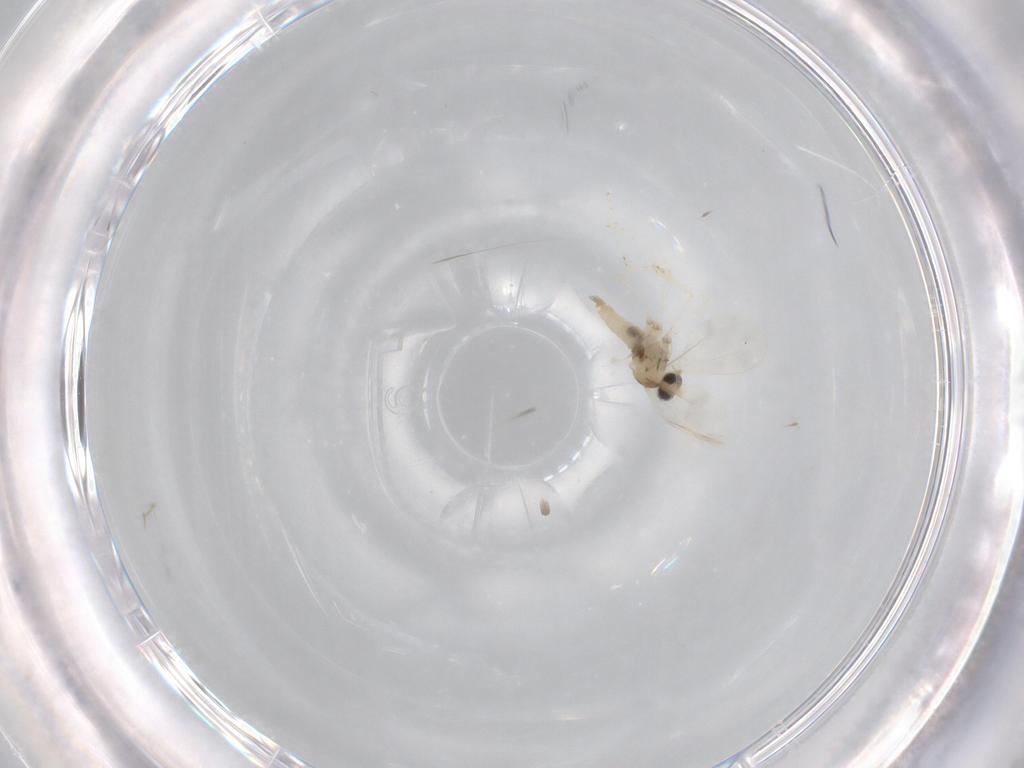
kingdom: Animalia
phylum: Arthropoda
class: Insecta
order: Diptera
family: Cecidomyiidae
